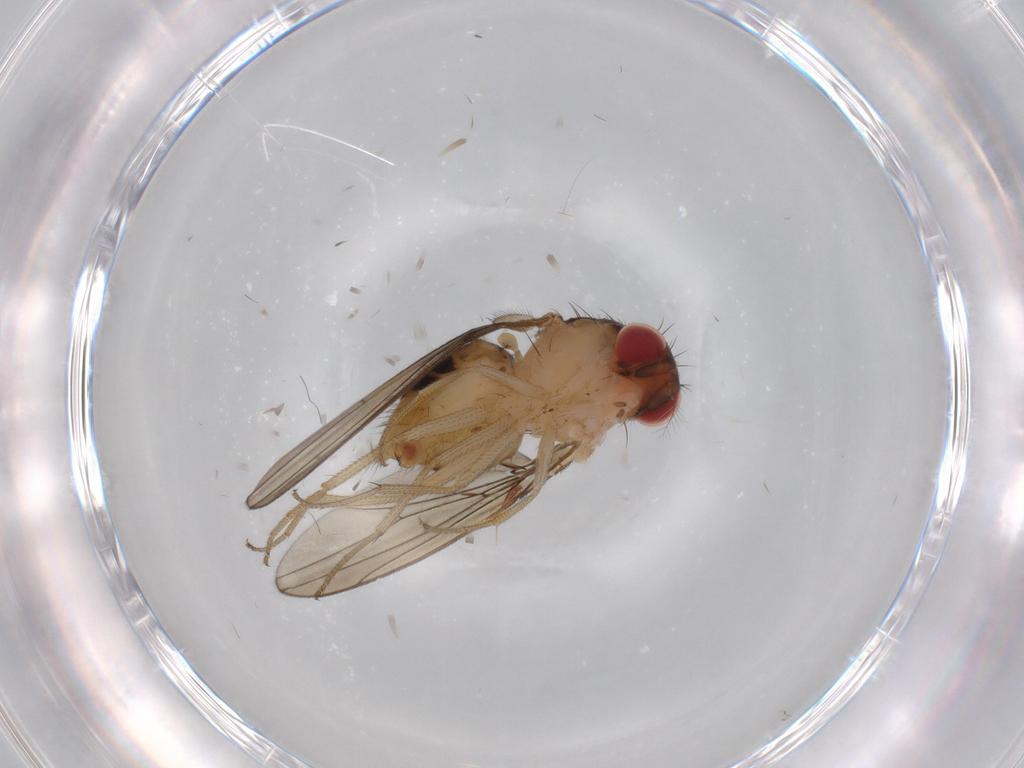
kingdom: Animalia
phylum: Arthropoda
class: Insecta
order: Diptera
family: Drosophilidae
